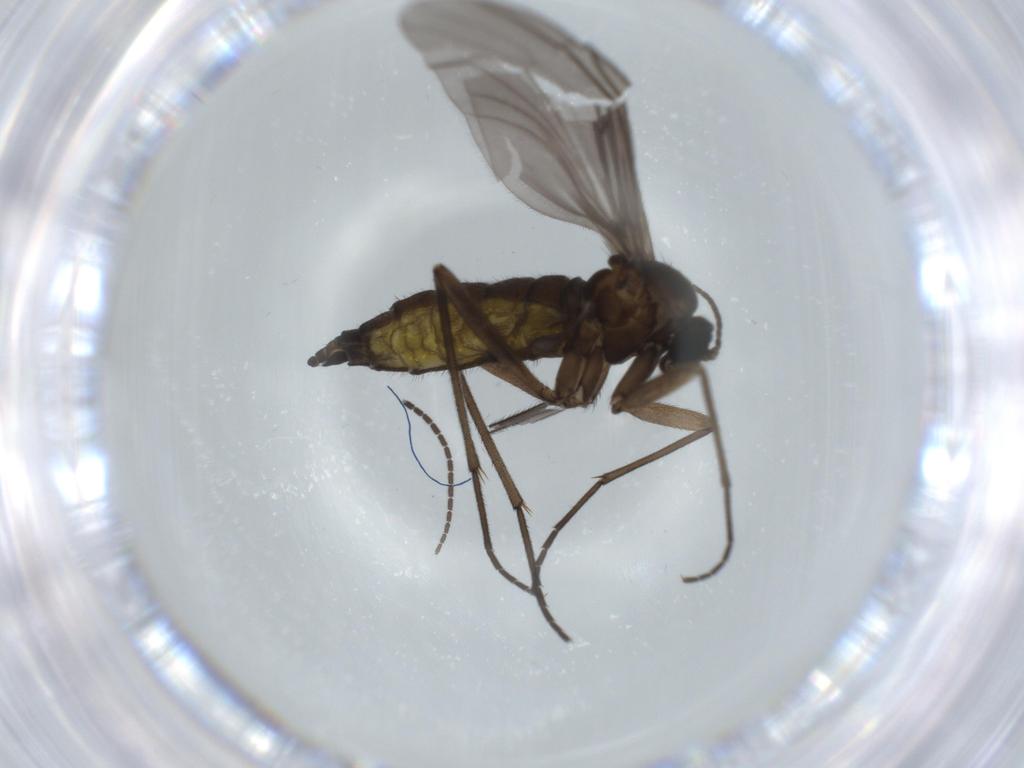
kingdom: Animalia
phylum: Arthropoda
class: Insecta
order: Diptera
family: Sciaridae
